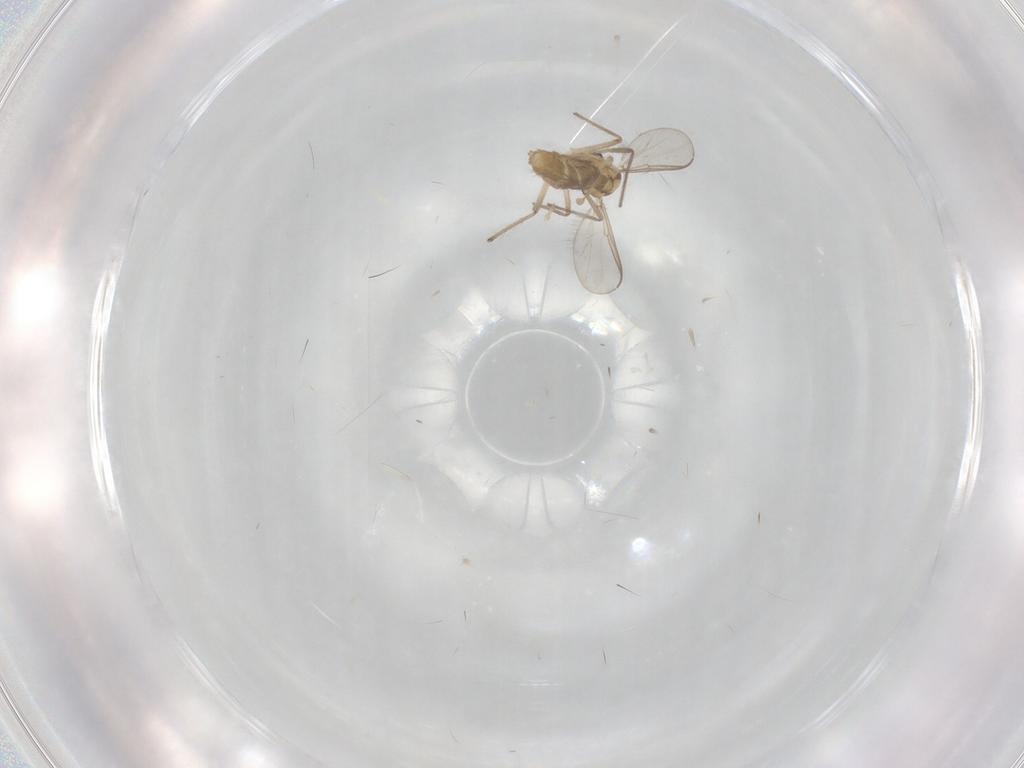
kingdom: Animalia
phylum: Arthropoda
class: Insecta
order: Diptera
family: Chironomidae
